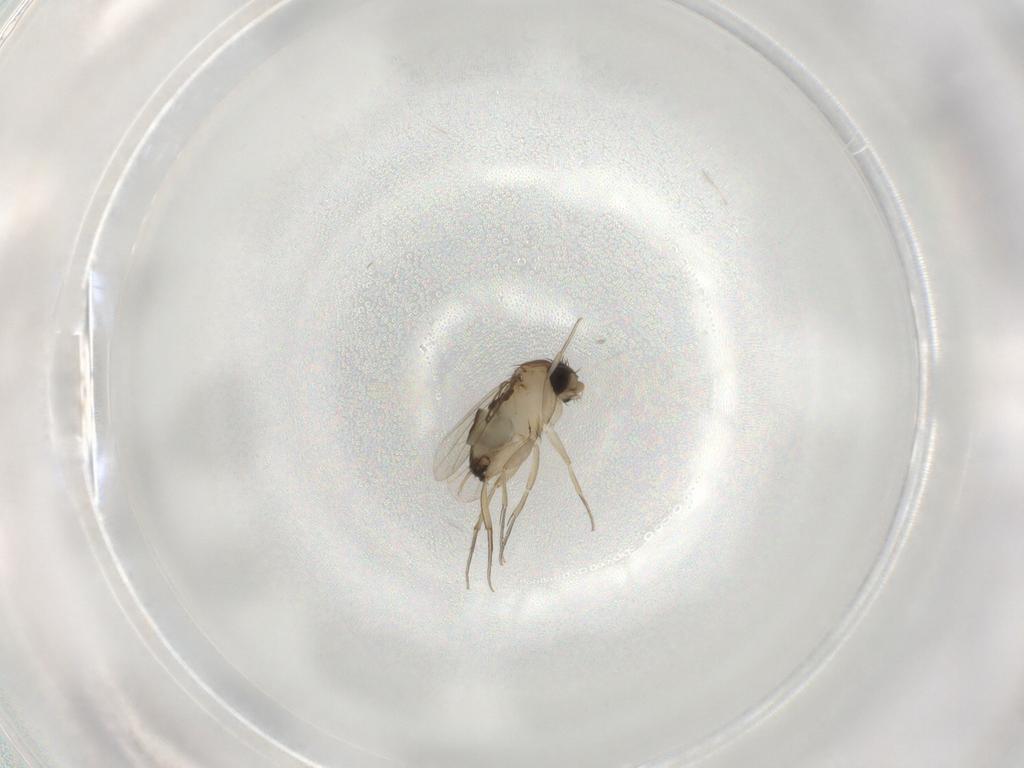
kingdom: Animalia
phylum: Arthropoda
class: Insecta
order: Diptera
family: Phoridae
